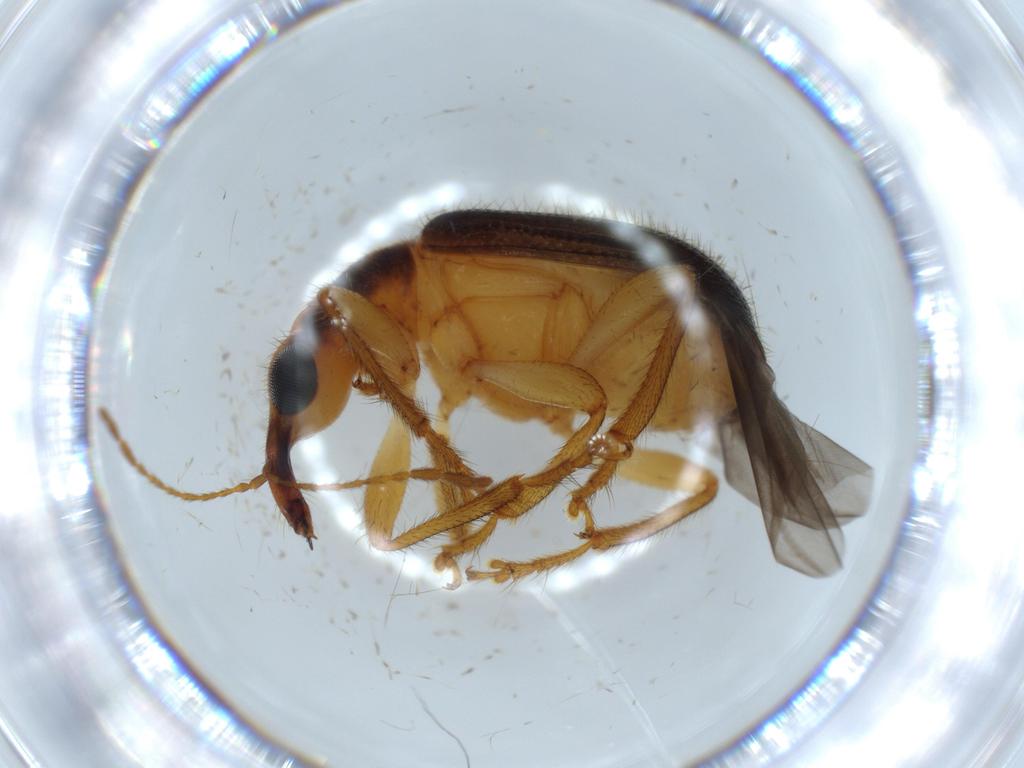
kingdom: Animalia
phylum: Arthropoda
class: Insecta
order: Coleoptera
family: Attelabidae
